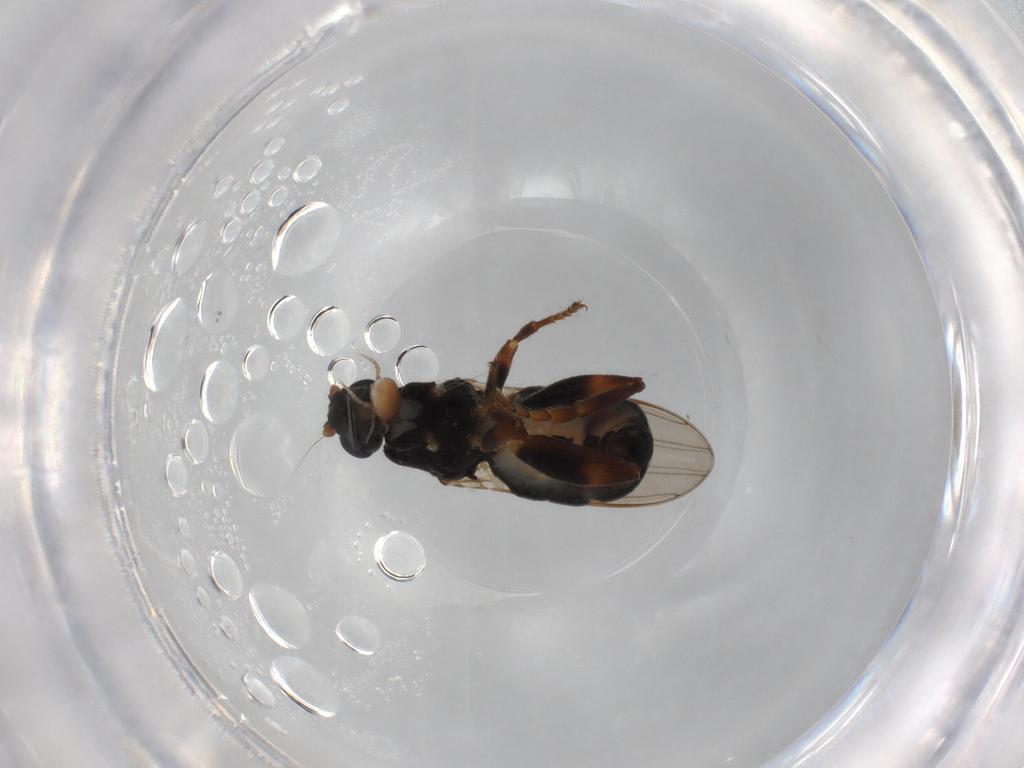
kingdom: Animalia
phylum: Arthropoda
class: Insecta
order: Diptera
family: Sphaeroceridae
